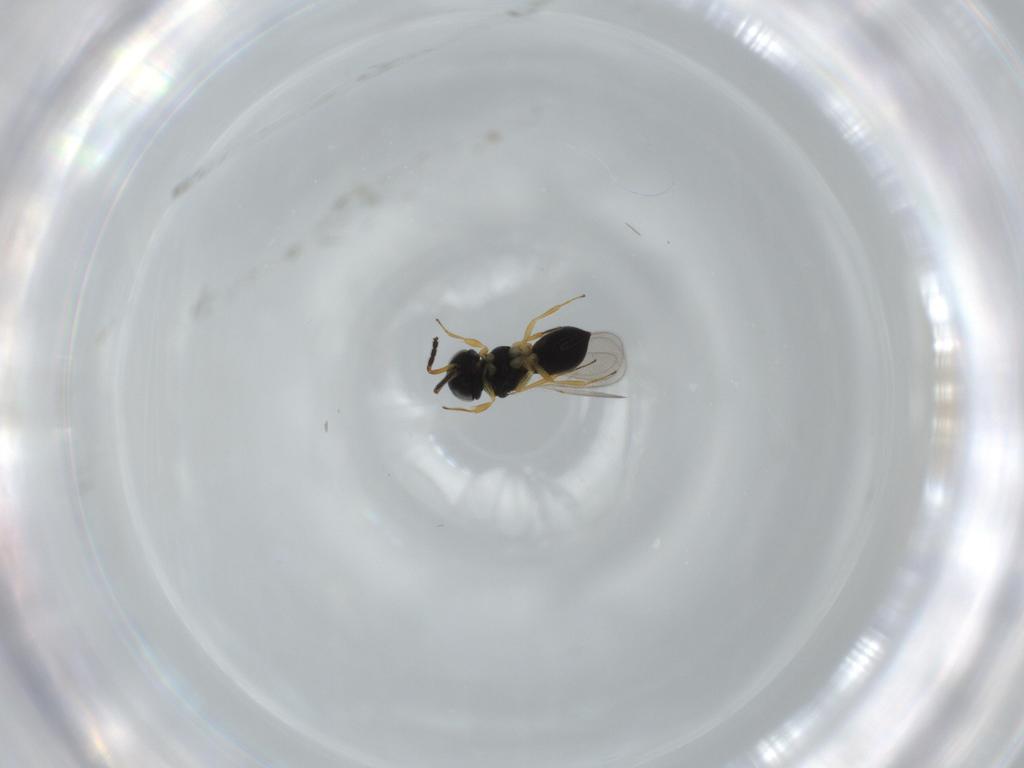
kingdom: Animalia
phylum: Arthropoda
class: Insecta
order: Hymenoptera
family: Scelionidae
